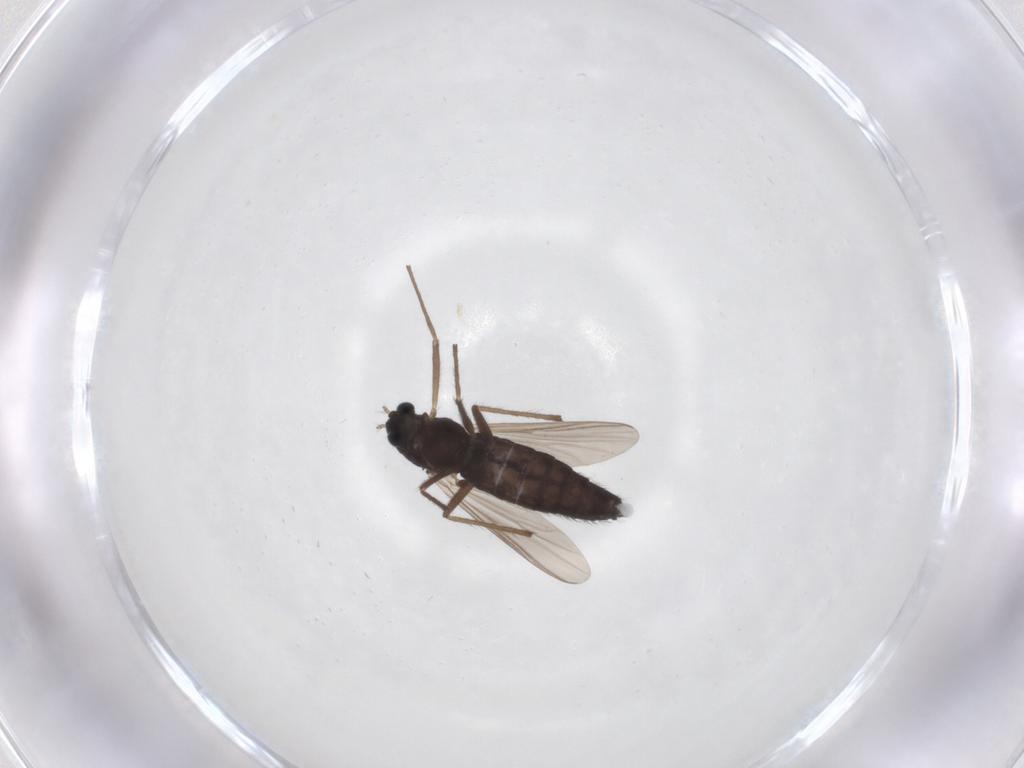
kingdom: Animalia
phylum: Arthropoda
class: Insecta
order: Diptera
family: Chironomidae
